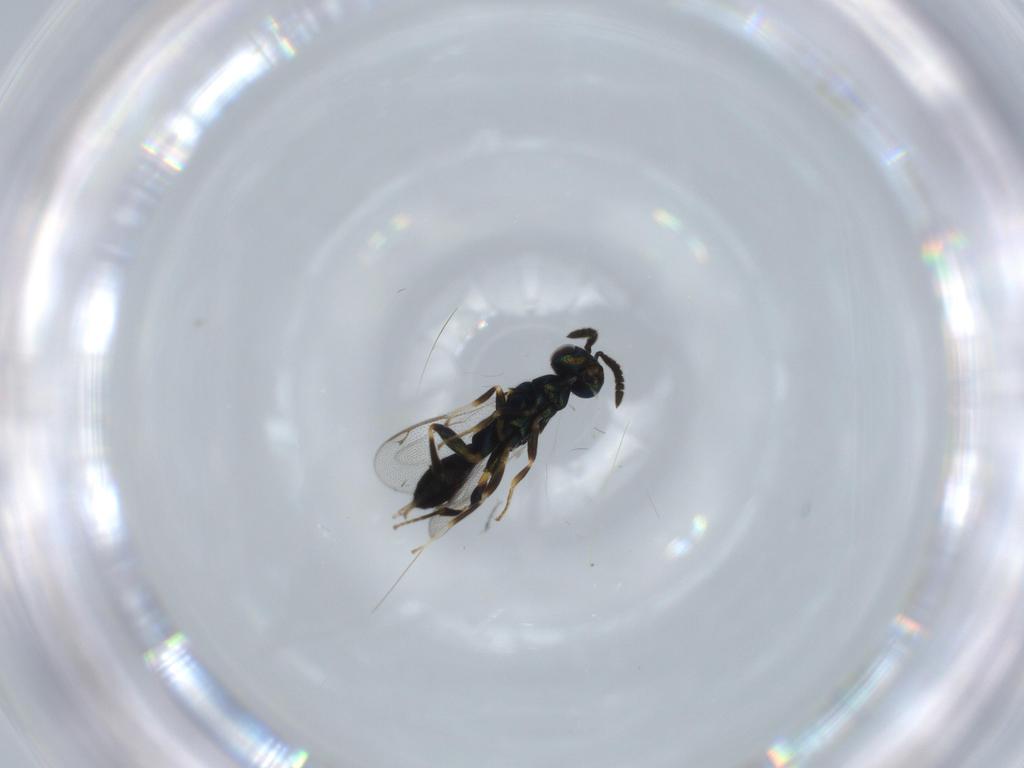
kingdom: Animalia
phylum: Arthropoda
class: Insecta
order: Hymenoptera
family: Cleonyminae
